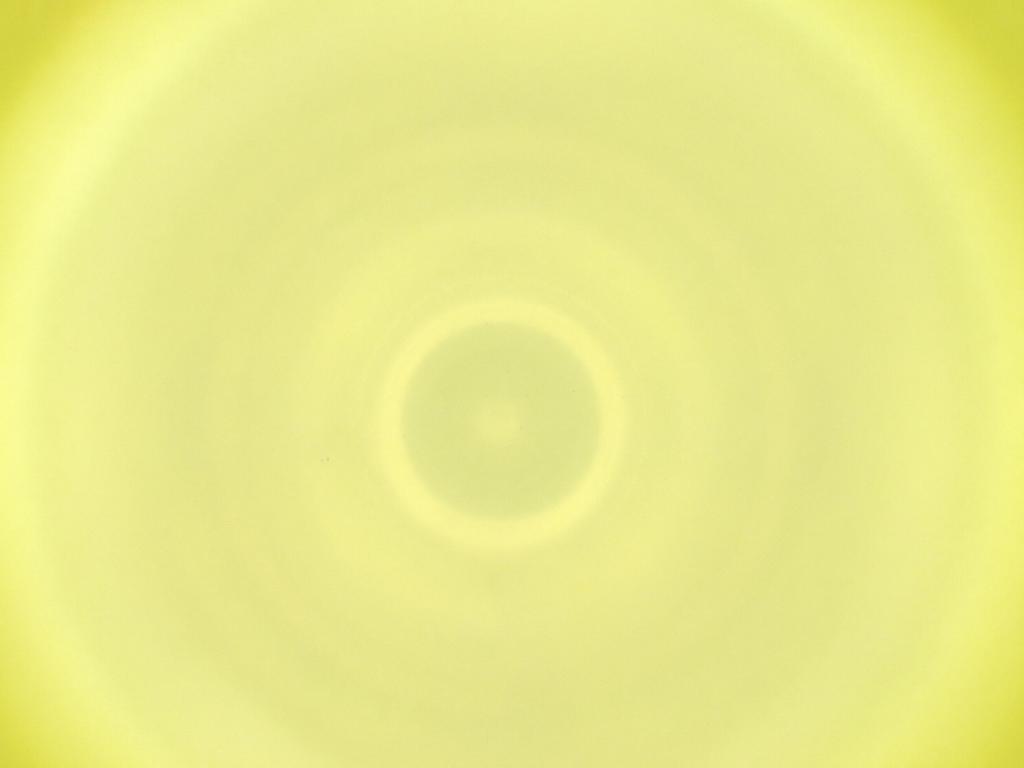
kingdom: Animalia
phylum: Arthropoda
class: Insecta
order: Diptera
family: Cecidomyiidae
